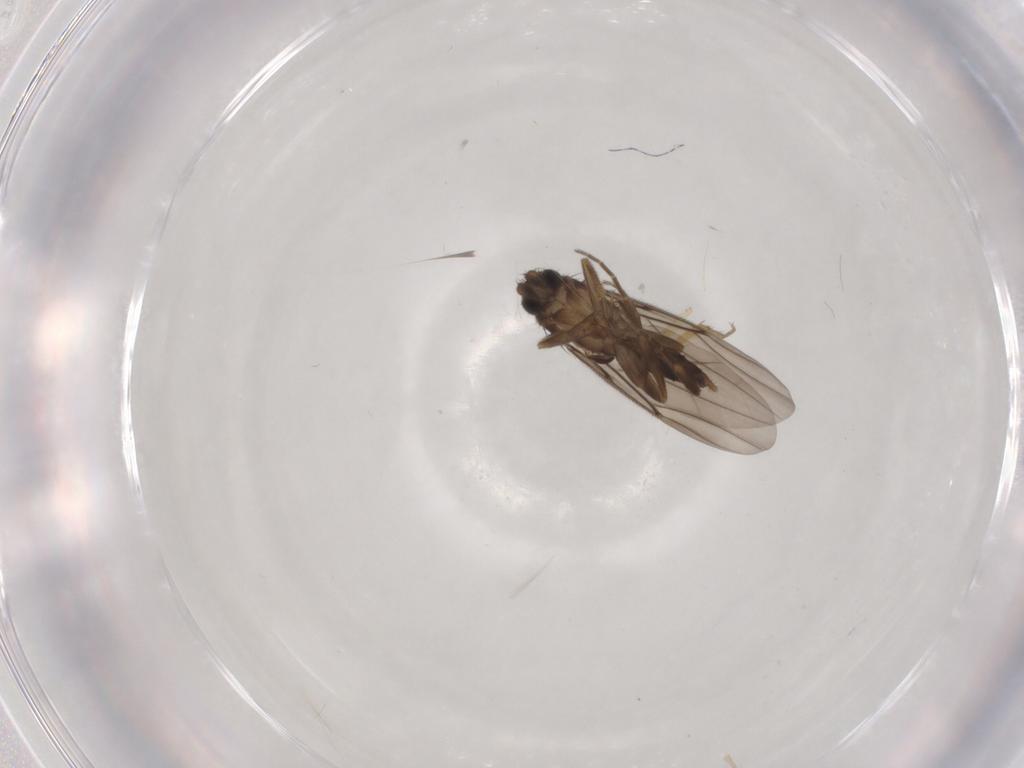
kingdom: Animalia
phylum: Arthropoda
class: Insecta
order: Diptera
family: Ceratopogonidae
